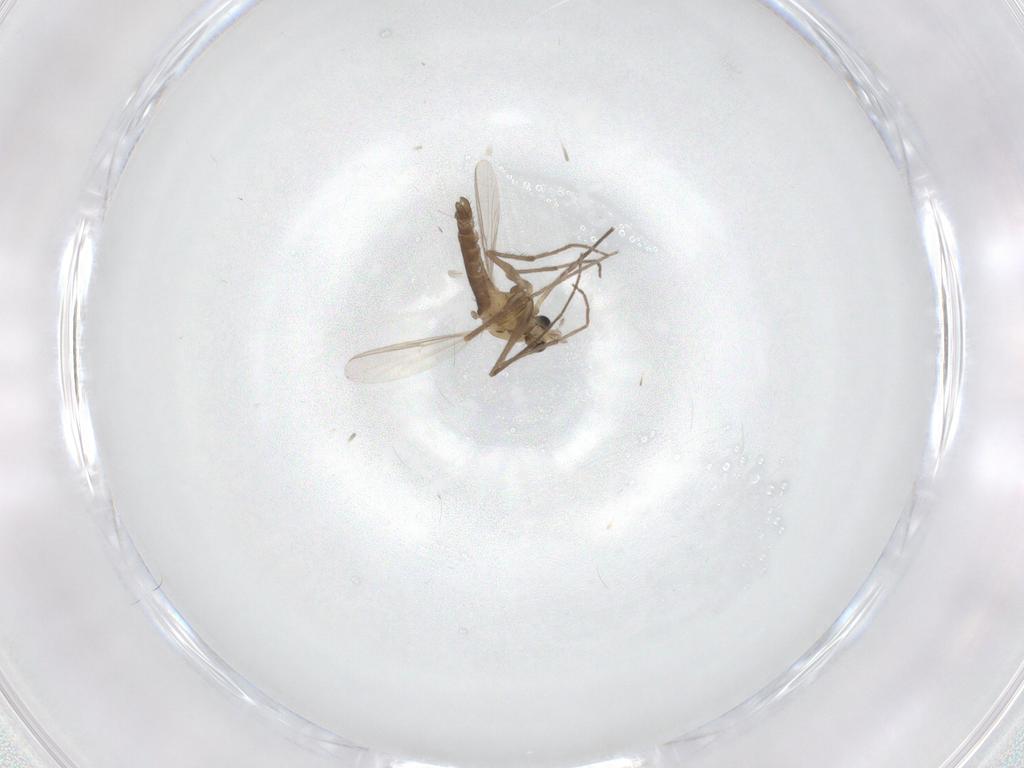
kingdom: Animalia
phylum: Arthropoda
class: Insecta
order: Diptera
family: Chironomidae
